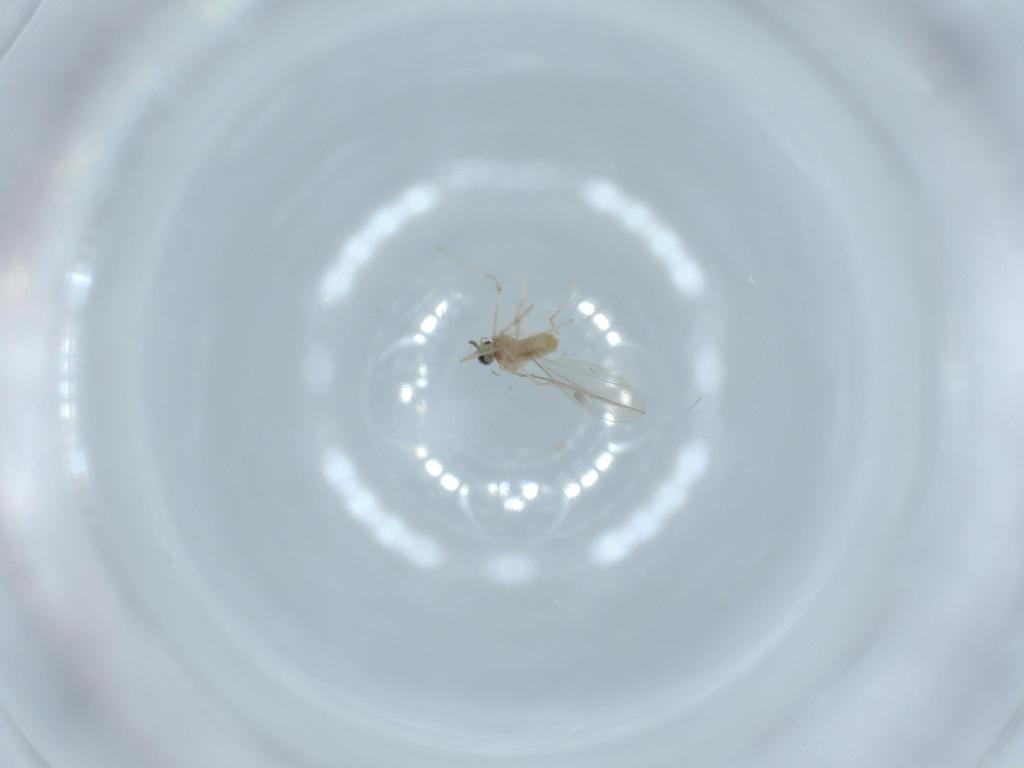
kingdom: Animalia
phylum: Arthropoda
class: Insecta
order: Diptera
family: Cecidomyiidae
